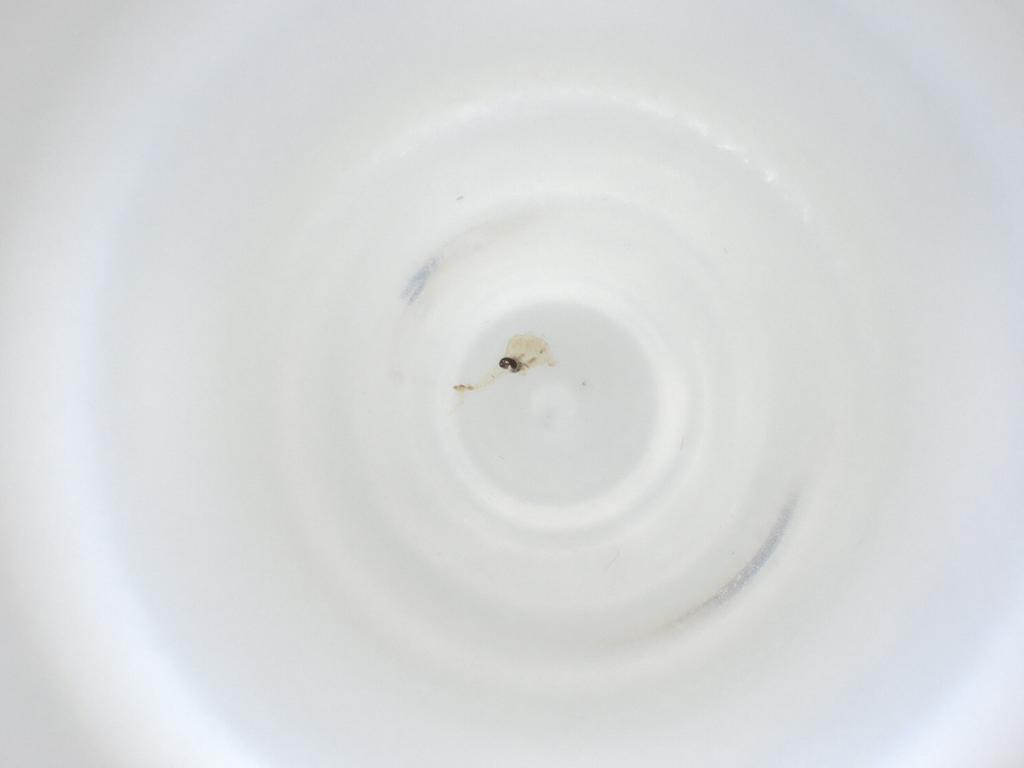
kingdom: Animalia
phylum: Arthropoda
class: Insecta
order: Diptera
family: Cecidomyiidae
